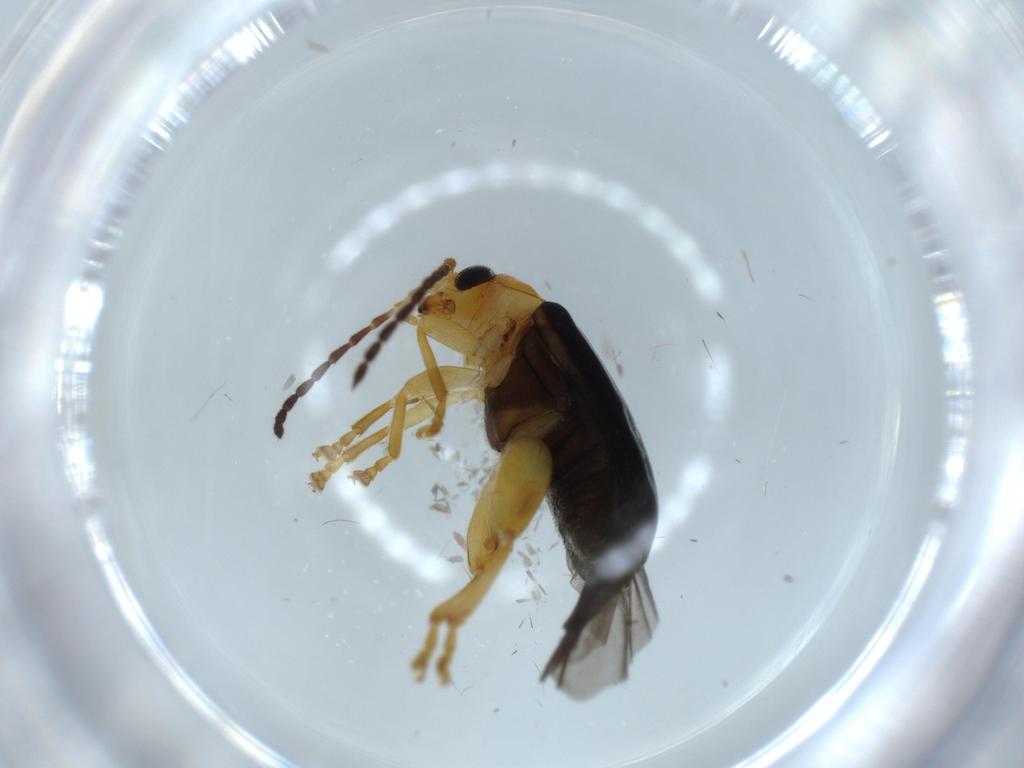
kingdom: Animalia
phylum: Arthropoda
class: Insecta
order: Coleoptera
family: Chrysomelidae
